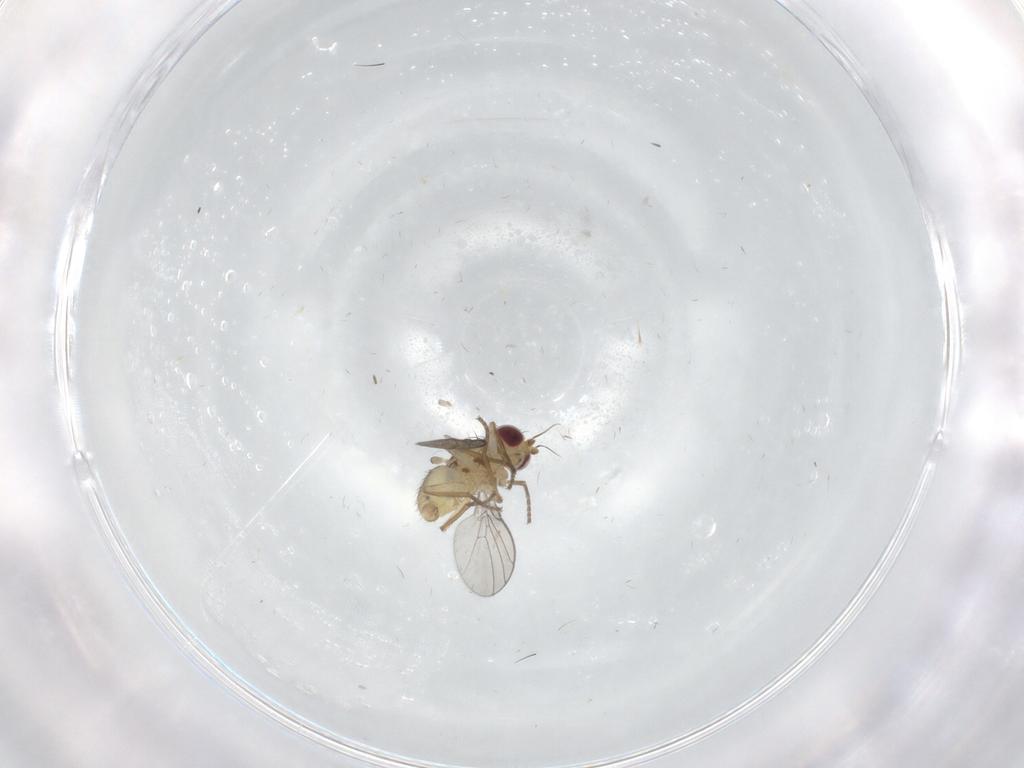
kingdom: Animalia
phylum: Arthropoda
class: Insecta
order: Diptera
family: Agromyzidae
